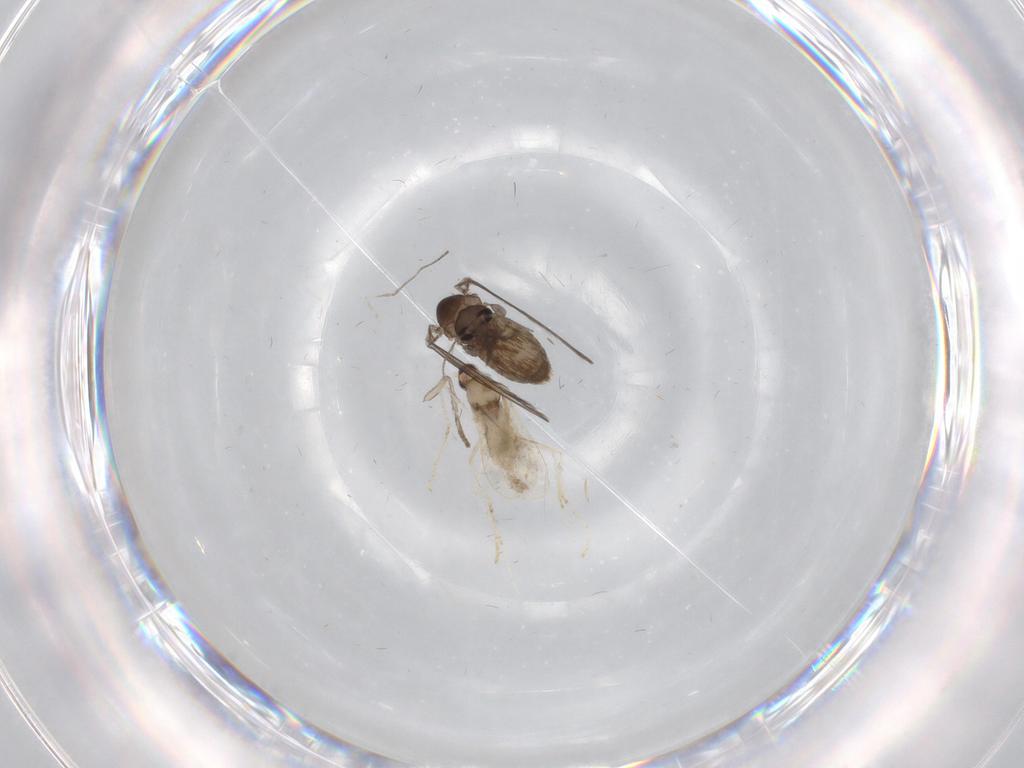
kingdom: Animalia
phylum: Arthropoda
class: Insecta
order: Diptera
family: Psychodidae
